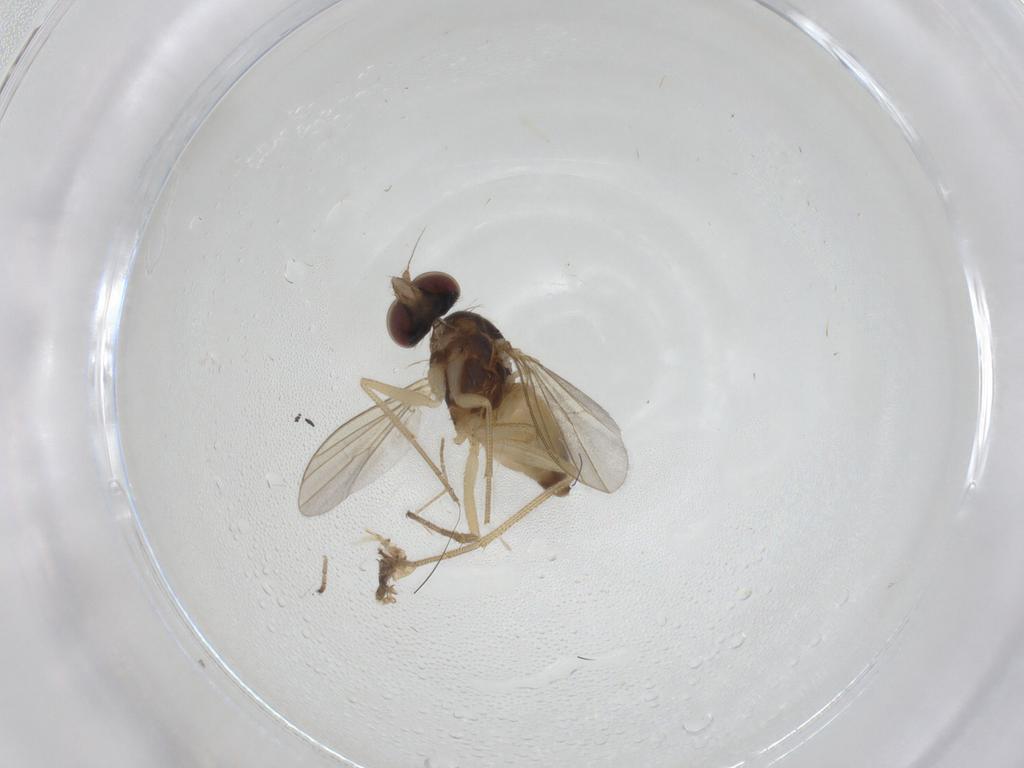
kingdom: Animalia
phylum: Arthropoda
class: Insecta
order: Diptera
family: Dolichopodidae
